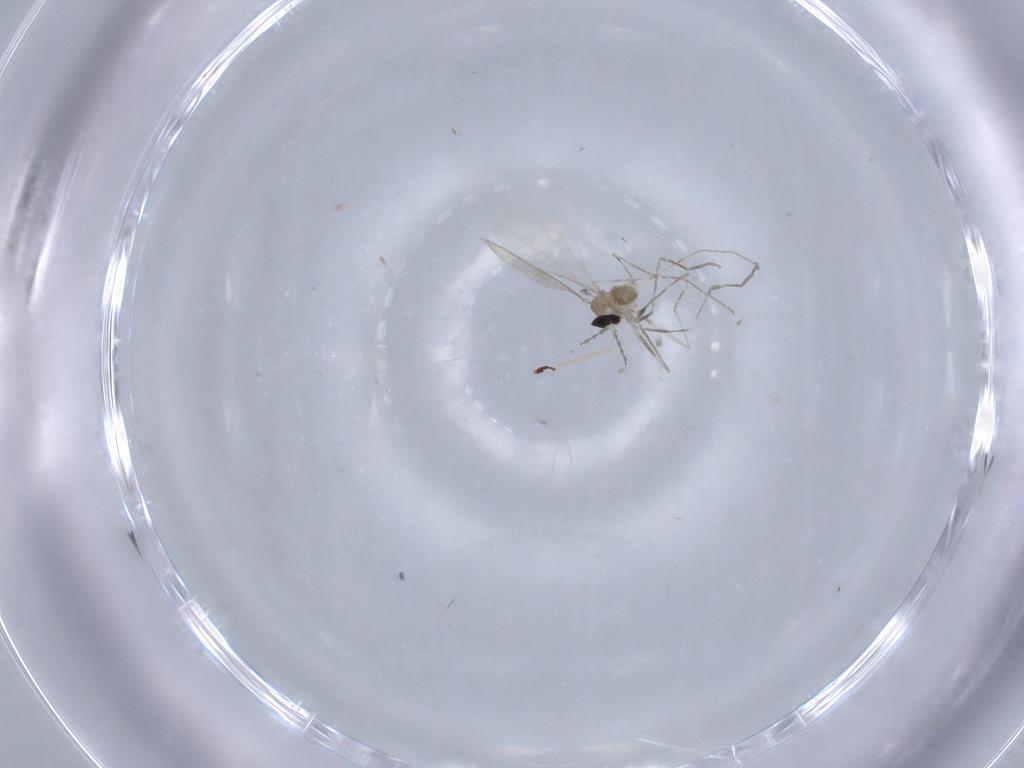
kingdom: Animalia
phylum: Arthropoda
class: Insecta
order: Diptera
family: Cecidomyiidae
